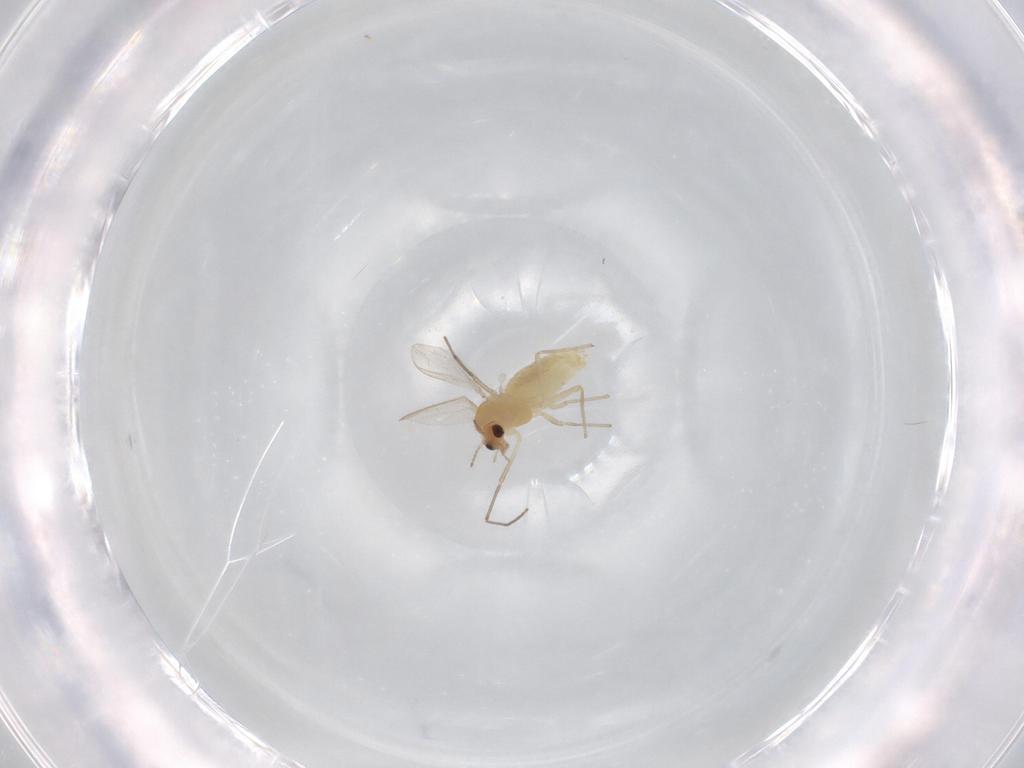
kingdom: Animalia
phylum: Arthropoda
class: Insecta
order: Diptera
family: Chironomidae
